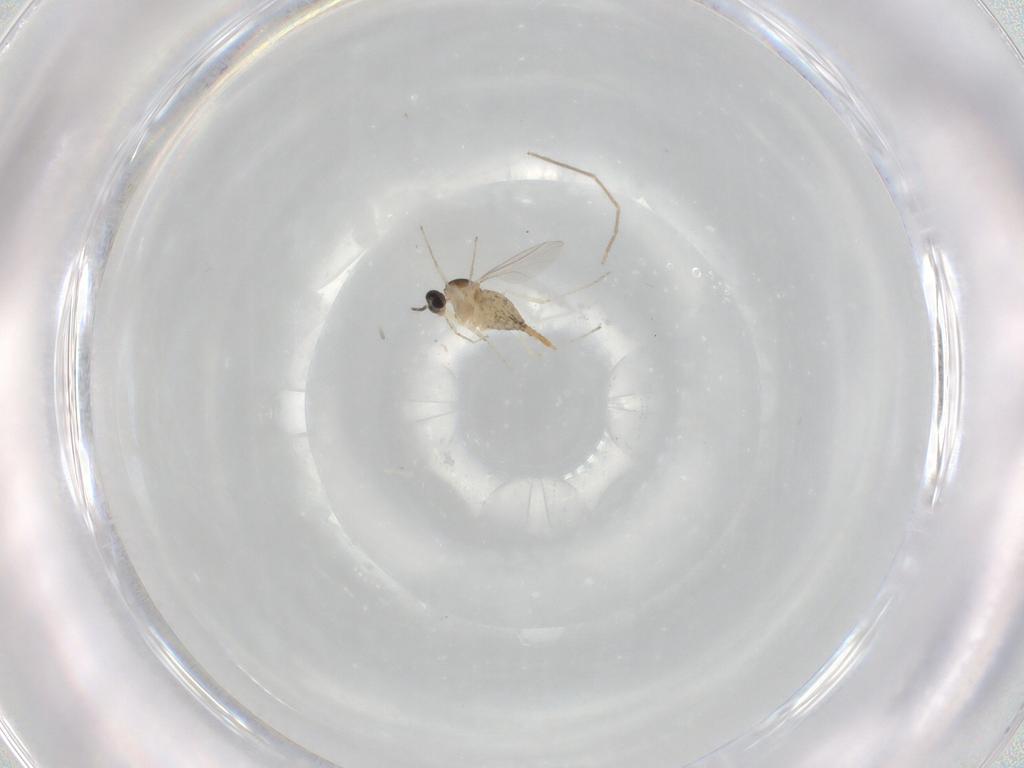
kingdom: Animalia
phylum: Arthropoda
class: Insecta
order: Diptera
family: Cecidomyiidae
